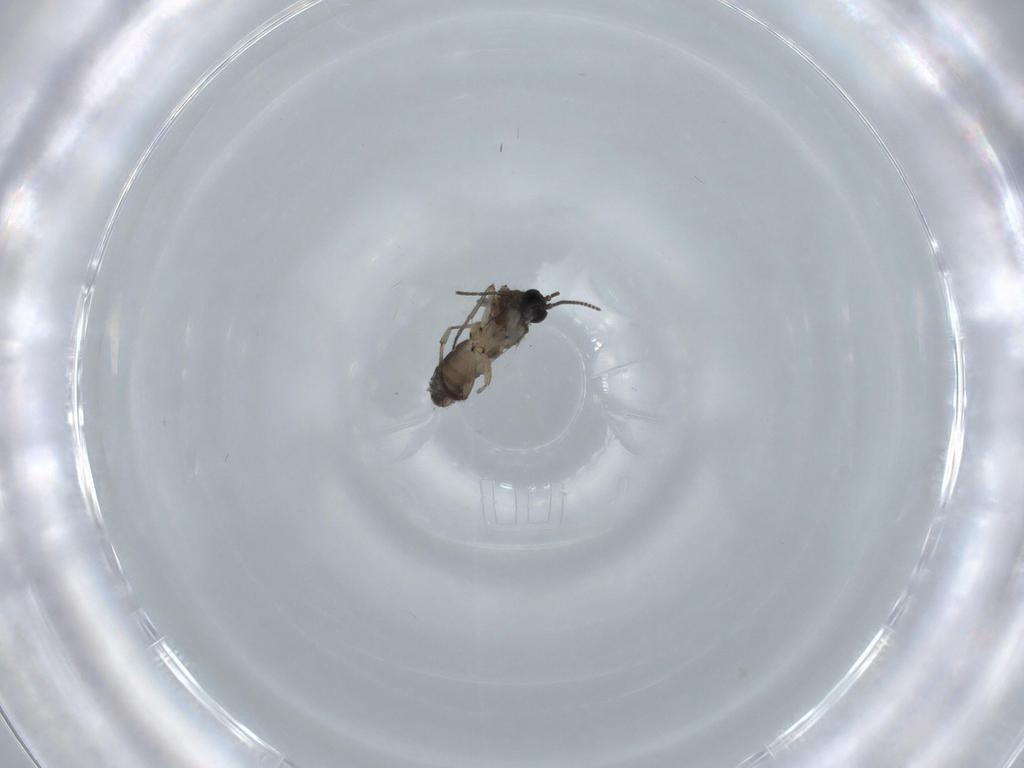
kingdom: Animalia
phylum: Arthropoda
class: Insecta
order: Diptera
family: Sciaridae
